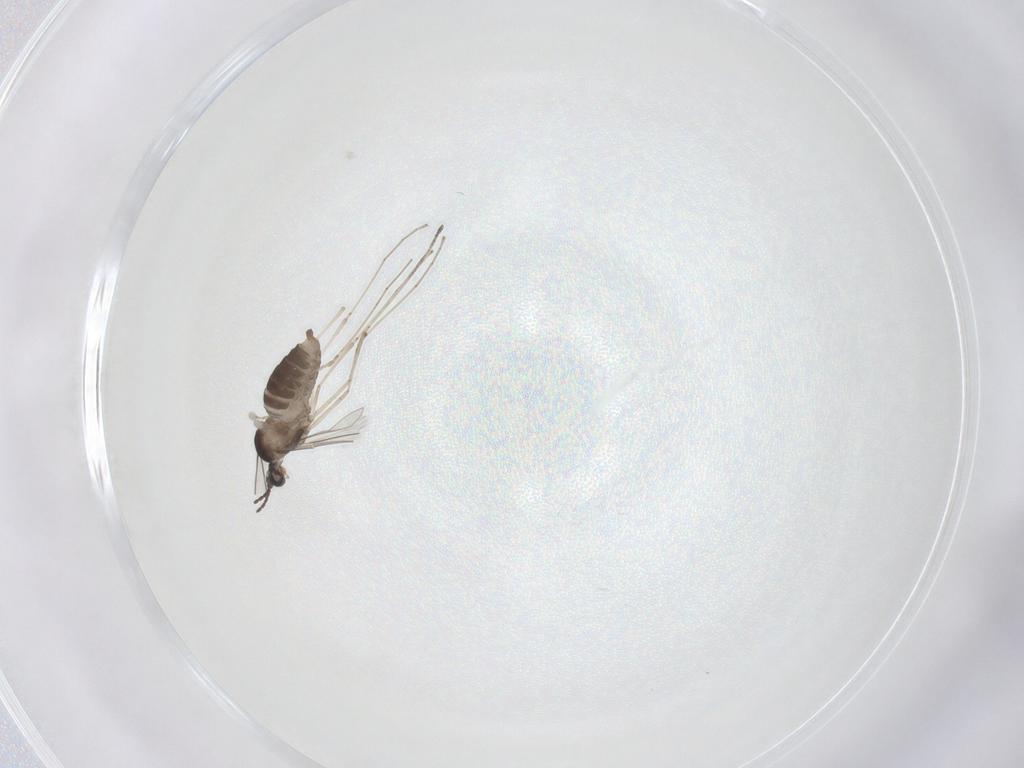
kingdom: Animalia
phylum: Arthropoda
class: Insecta
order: Diptera
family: Cecidomyiidae
